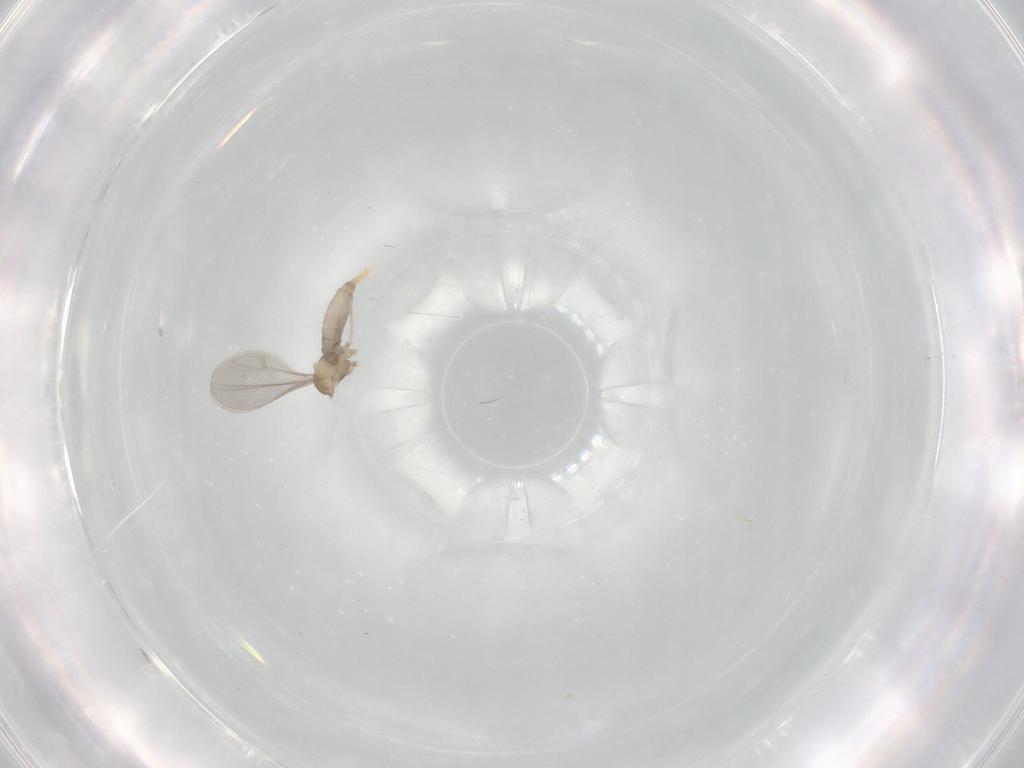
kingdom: Animalia
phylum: Arthropoda
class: Insecta
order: Diptera
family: Cecidomyiidae
